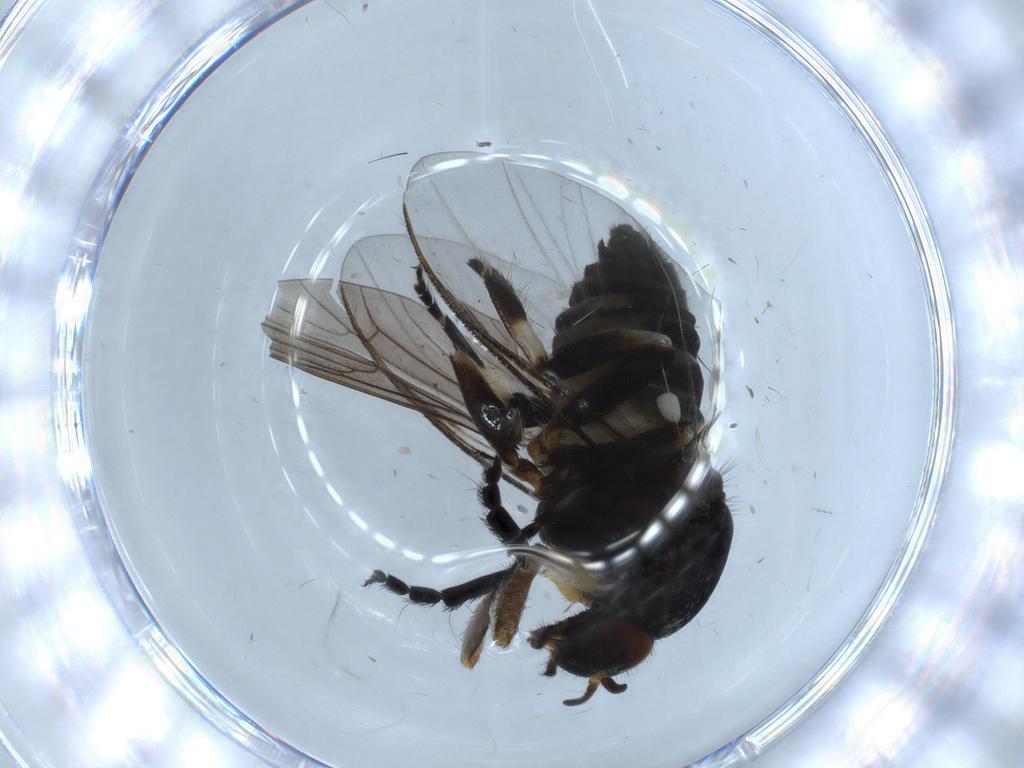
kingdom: Animalia
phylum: Arthropoda
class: Insecta
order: Diptera
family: Phoridae
